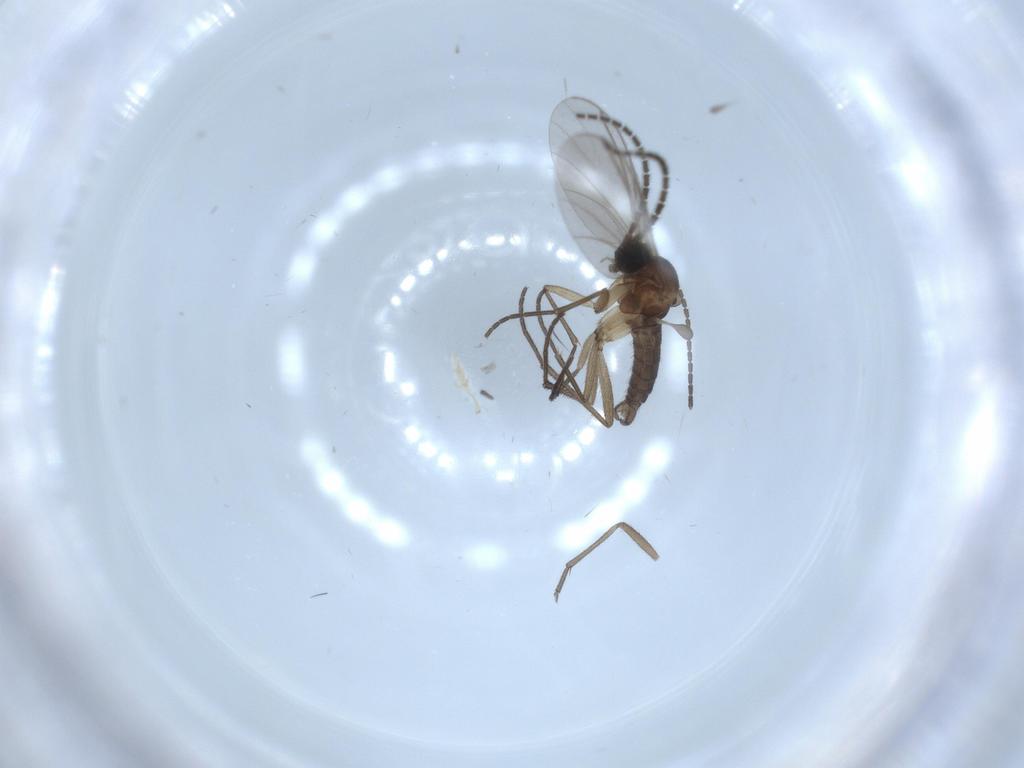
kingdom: Animalia
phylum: Arthropoda
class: Insecta
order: Diptera
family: Sciaridae
